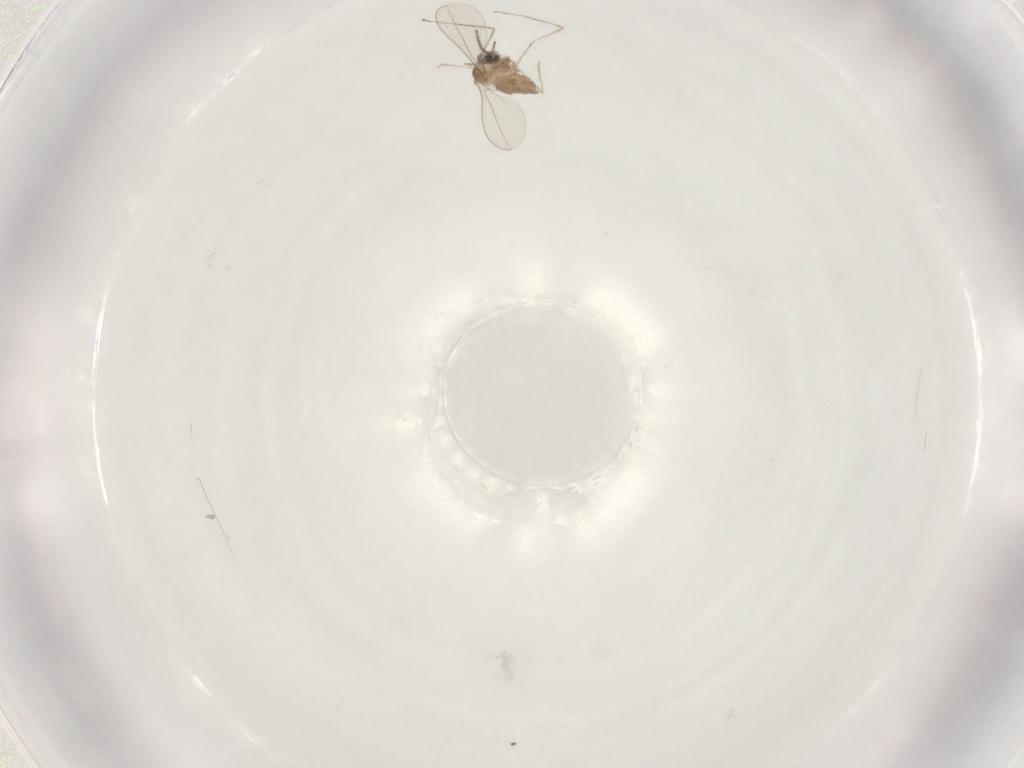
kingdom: Animalia
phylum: Arthropoda
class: Insecta
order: Diptera
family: Cecidomyiidae
